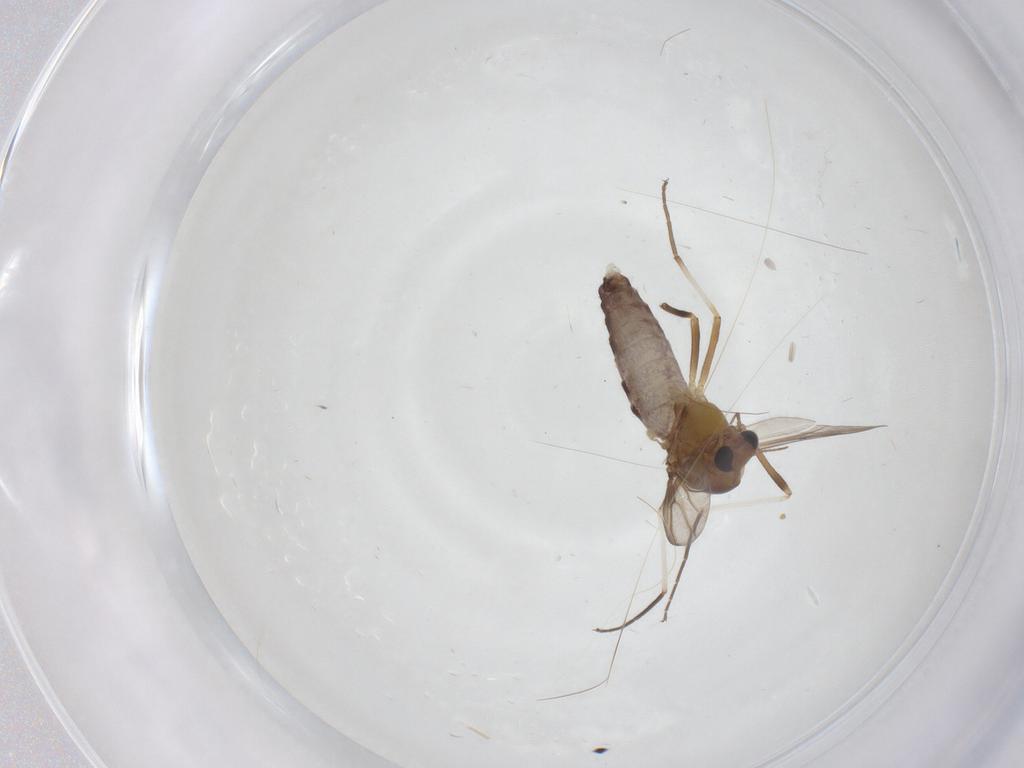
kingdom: Animalia
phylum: Arthropoda
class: Insecta
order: Diptera
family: Chironomidae
